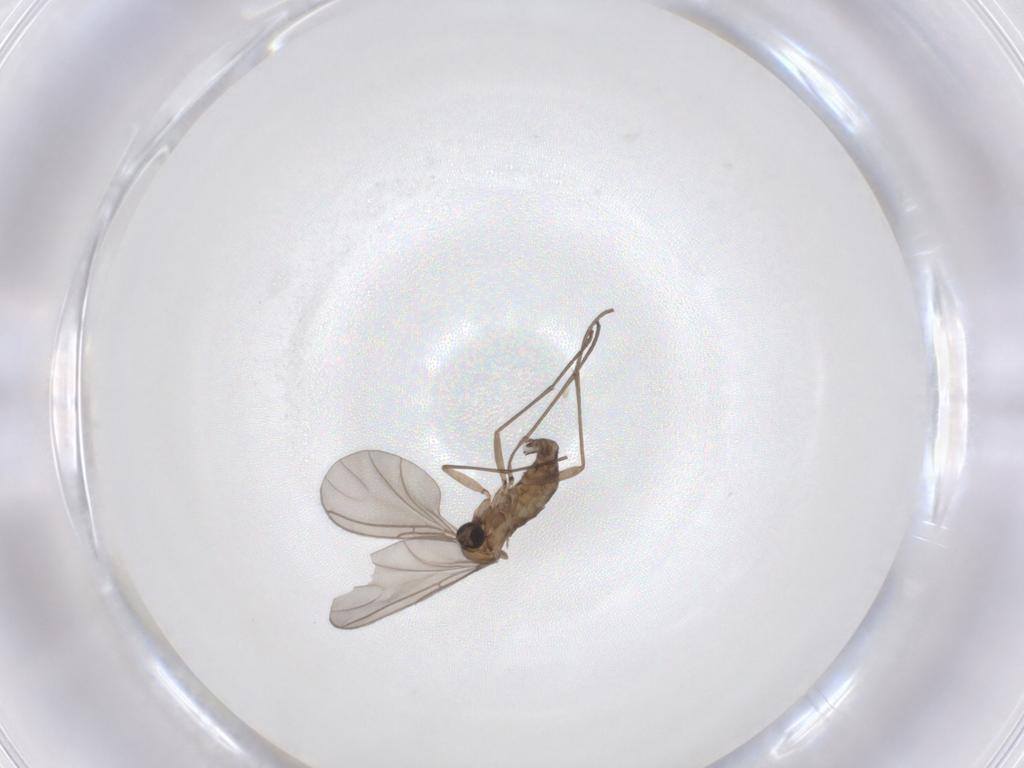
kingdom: Animalia
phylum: Arthropoda
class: Insecta
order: Diptera
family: Sciaridae
